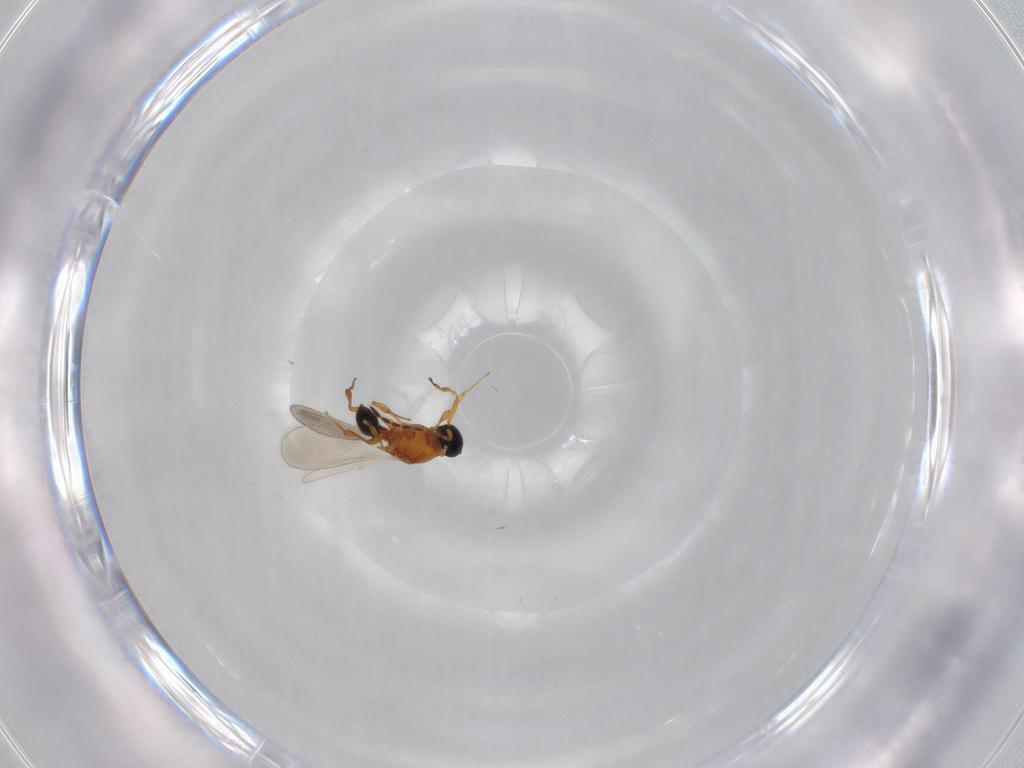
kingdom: Animalia
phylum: Arthropoda
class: Insecta
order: Hymenoptera
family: Platygastridae
